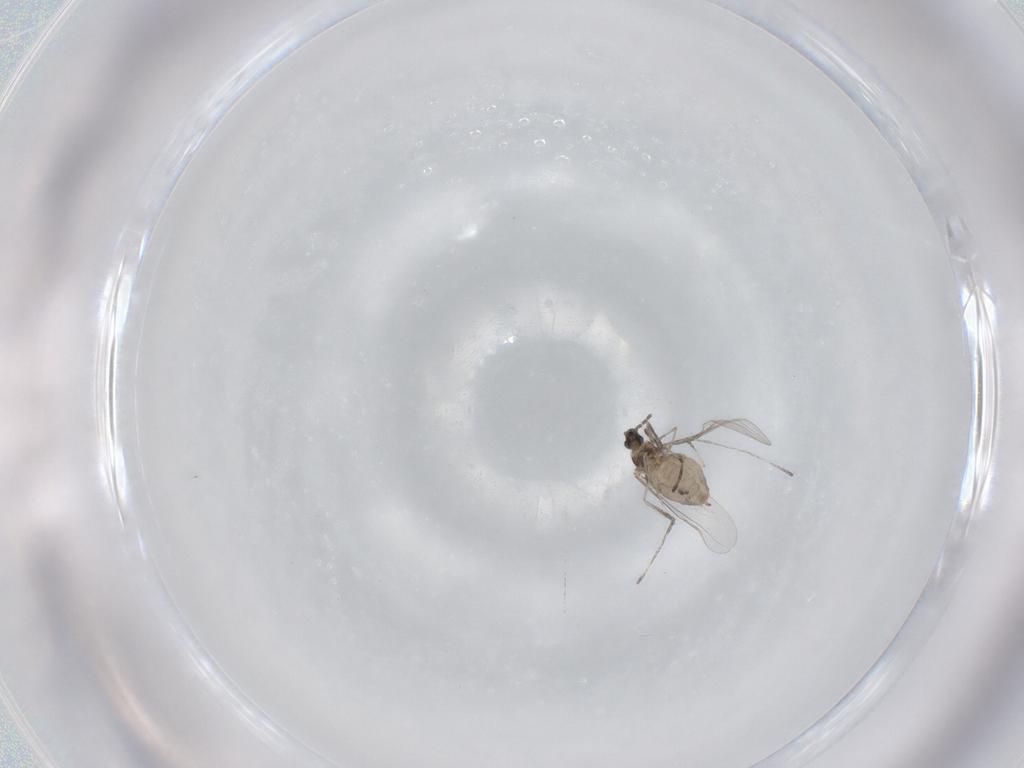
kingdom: Animalia
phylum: Arthropoda
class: Insecta
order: Diptera
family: Cecidomyiidae
